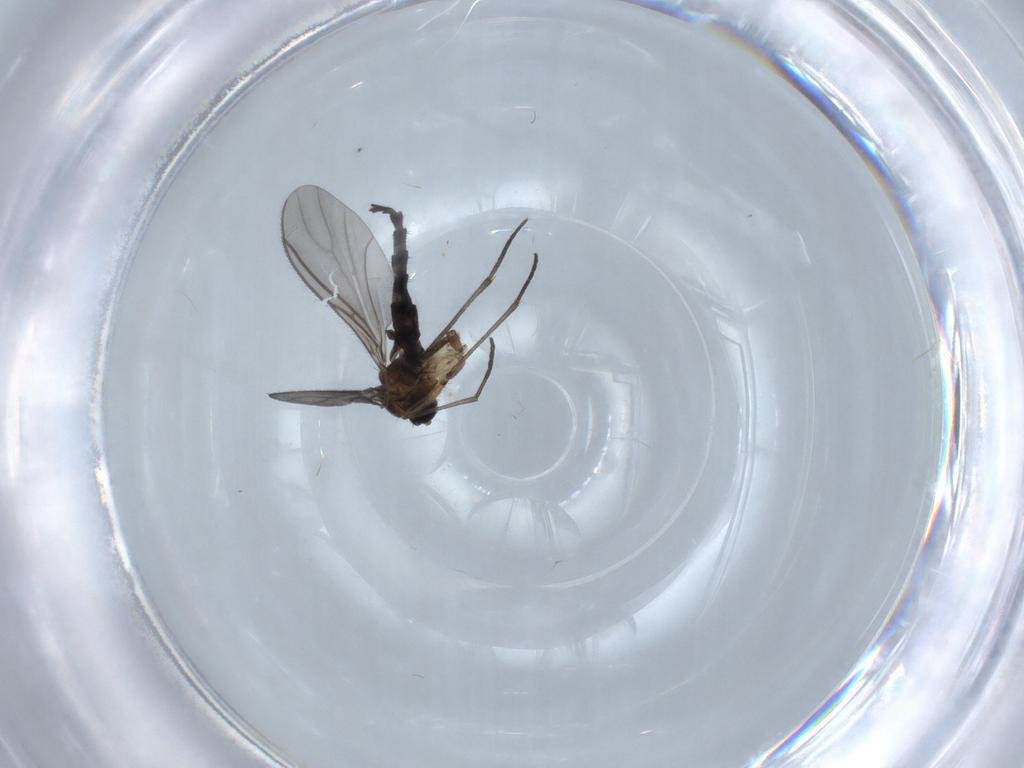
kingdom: Animalia
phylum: Arthropoda
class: Insecta
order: Diptera
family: Sciaridae
